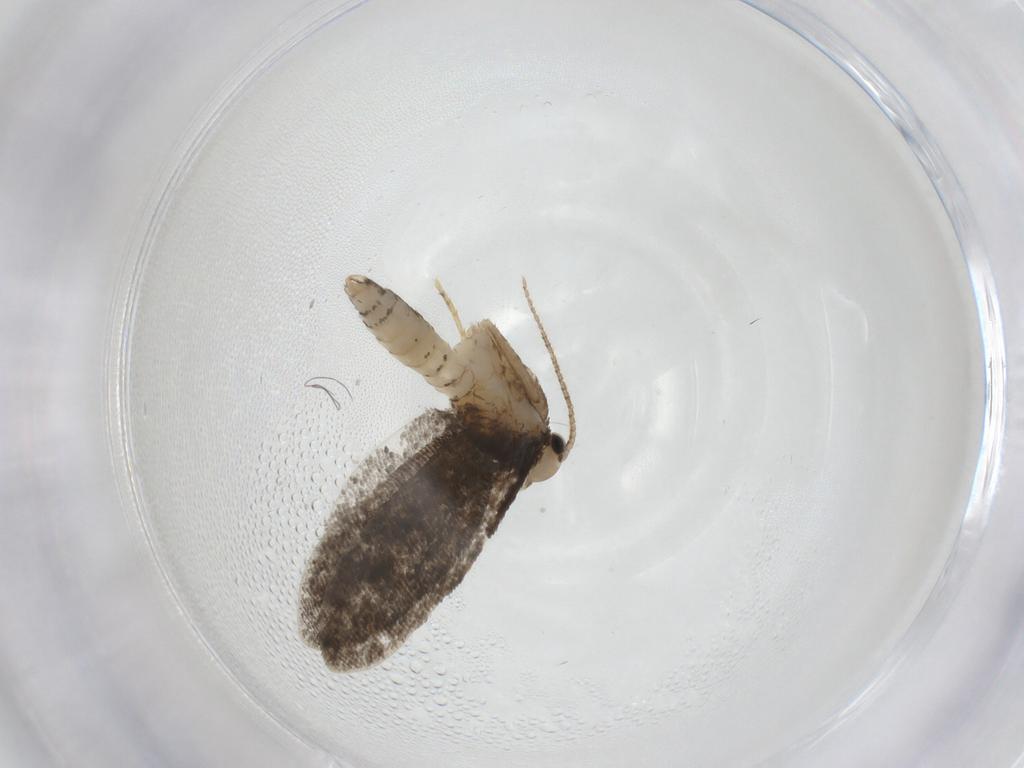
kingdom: Animalia
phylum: Arthropoda
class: Insecta
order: Lepidoptera
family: Psychidae
